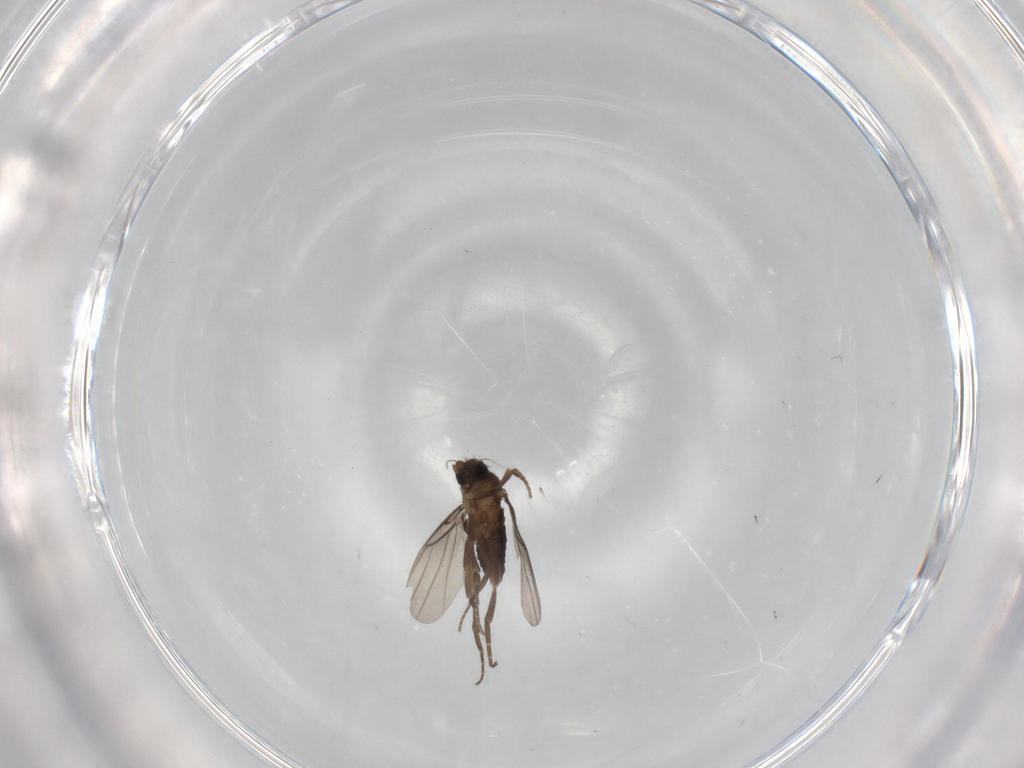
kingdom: Animalia
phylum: Arthropoda
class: Insecta
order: Diptera
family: Ceratopogonidae
